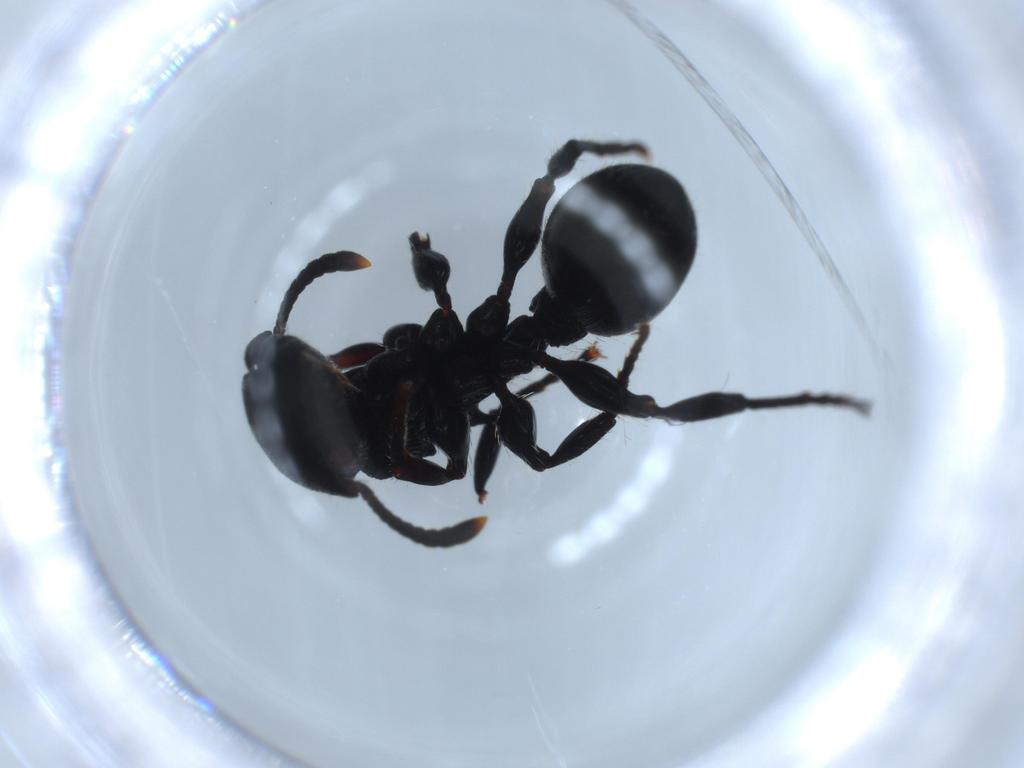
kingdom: Animalia
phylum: Arthropoda
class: Insecta
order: Hymenoptera
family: Formicidae
